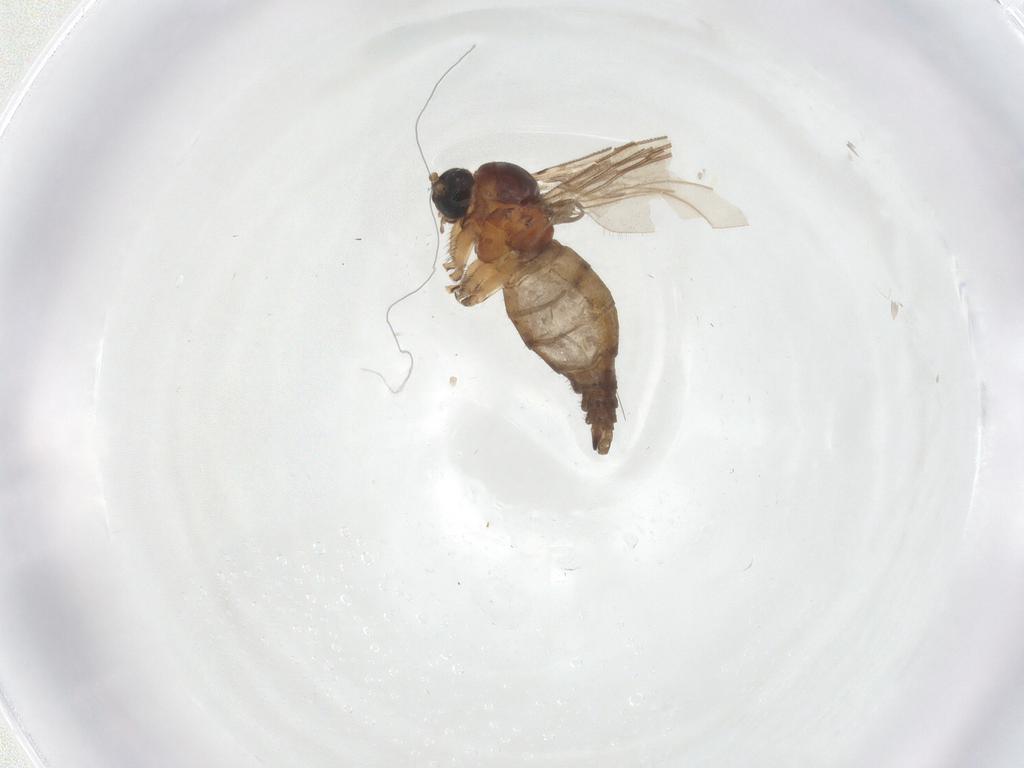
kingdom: Animalia
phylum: Arthropoda
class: Insecta
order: Diptera
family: Sciaridae
